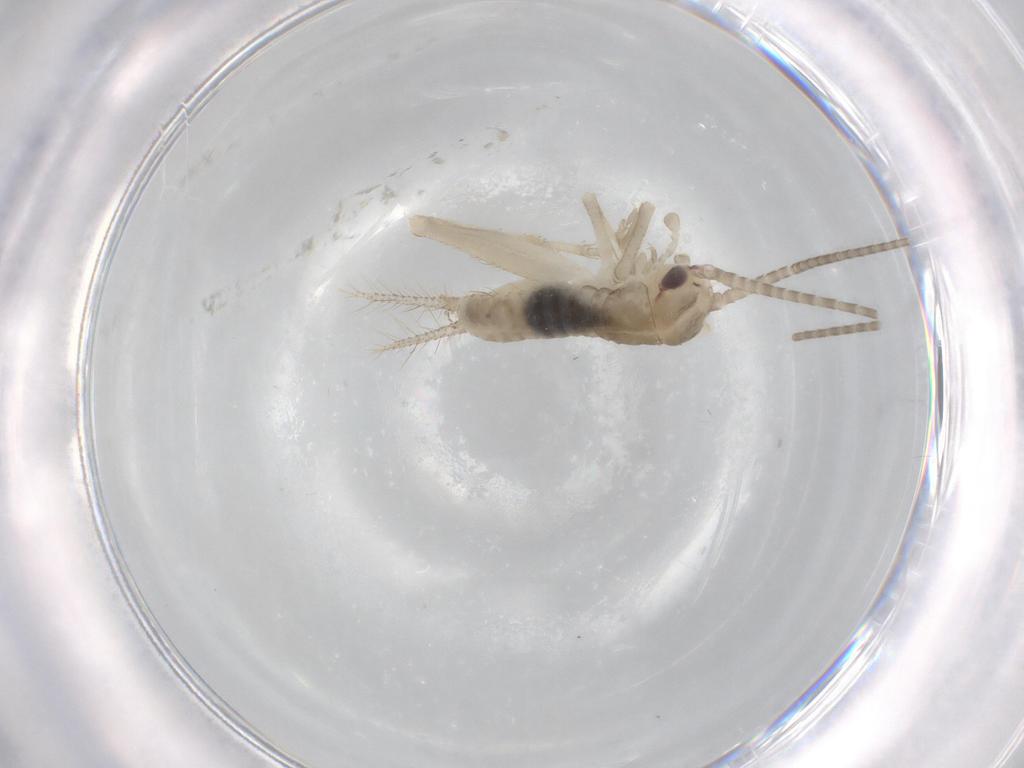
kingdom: Animalia
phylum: Arthropoda
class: Insecta
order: Orthoptera
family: Gryllidae
